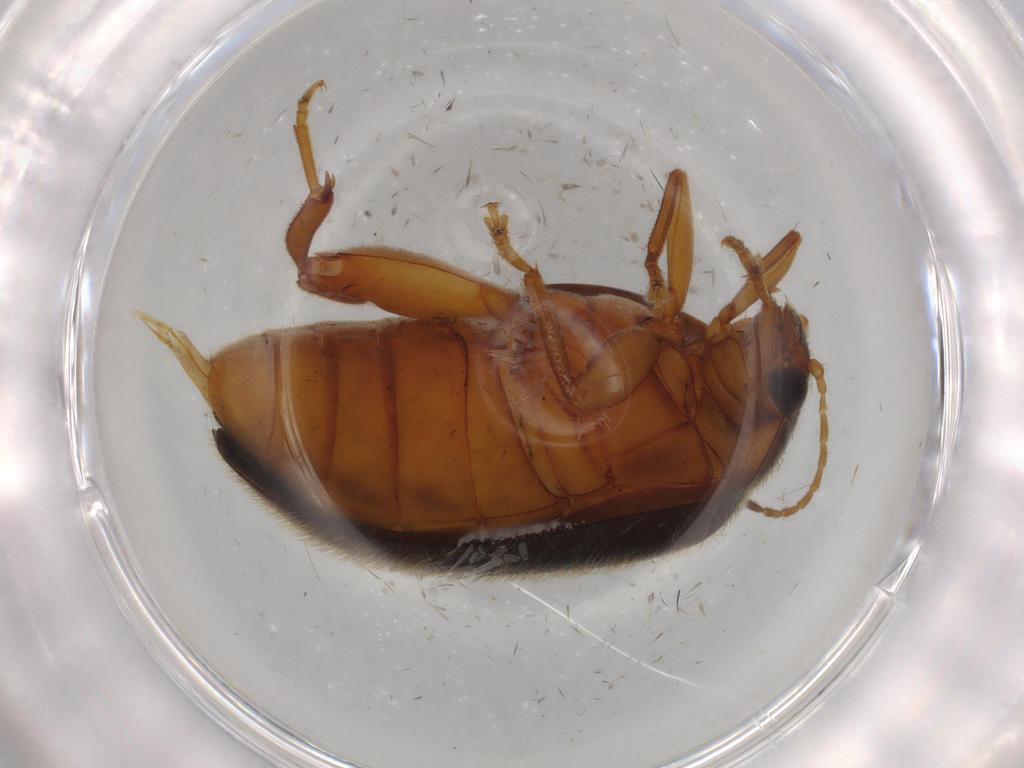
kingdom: Animalia
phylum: Arthropoda
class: Insecta
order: Coleoptera
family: Scirtidae
